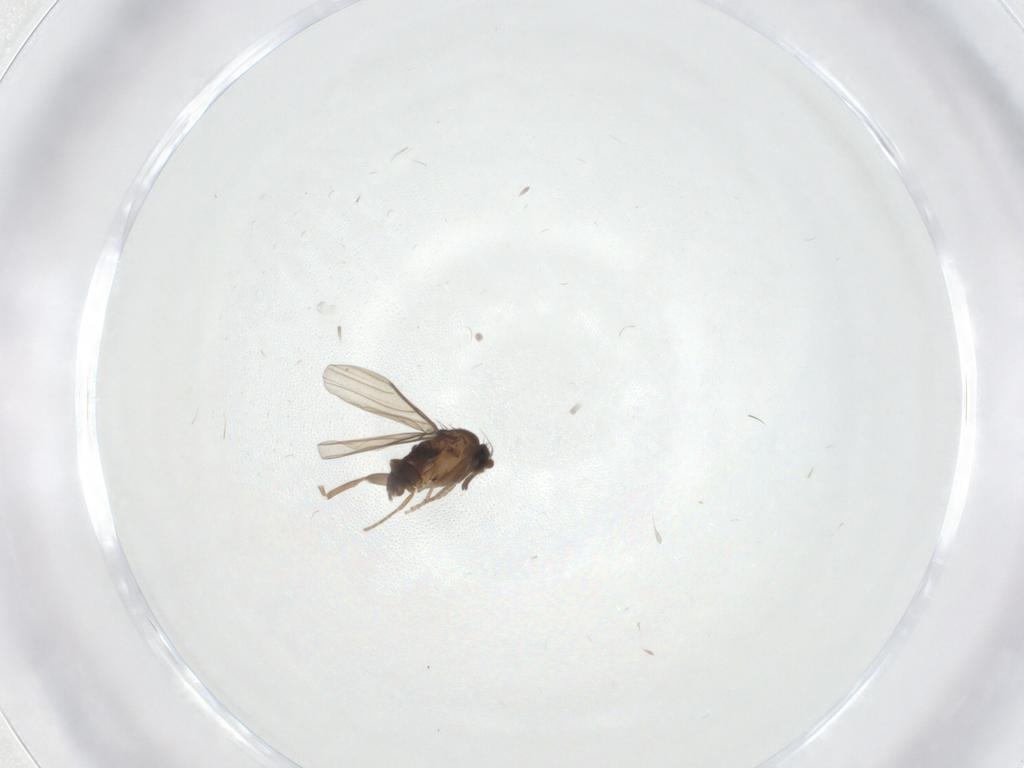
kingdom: Animalia
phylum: Arthropoda
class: Insecta
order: Diptera
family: Phoridae
